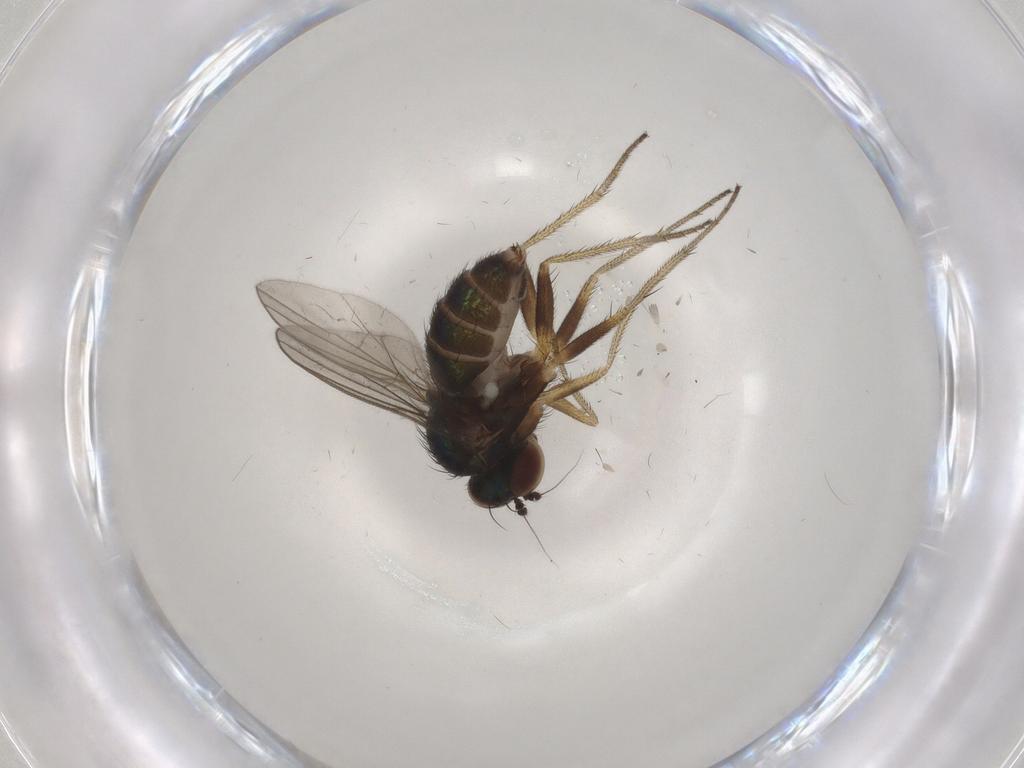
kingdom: Animalia
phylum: Arthropoda
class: Insecta
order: Diptera
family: Dolichopodidae
